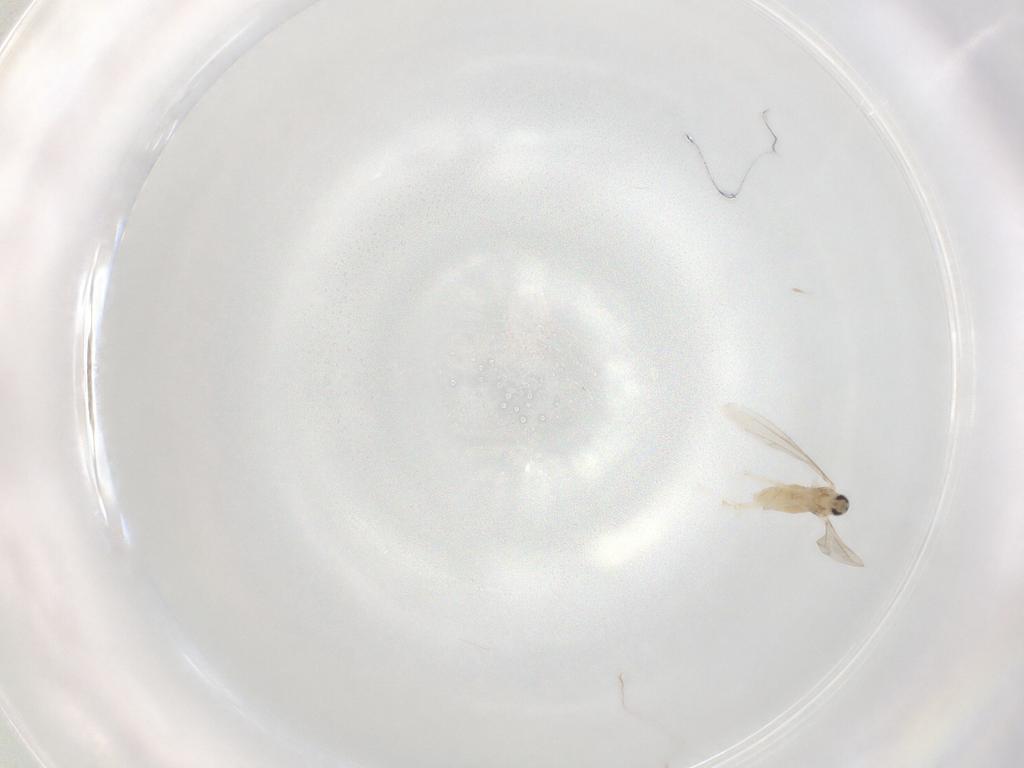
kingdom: Animalia
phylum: Arthropoda
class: Insecta
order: Diptera
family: Cecidomyiidae
